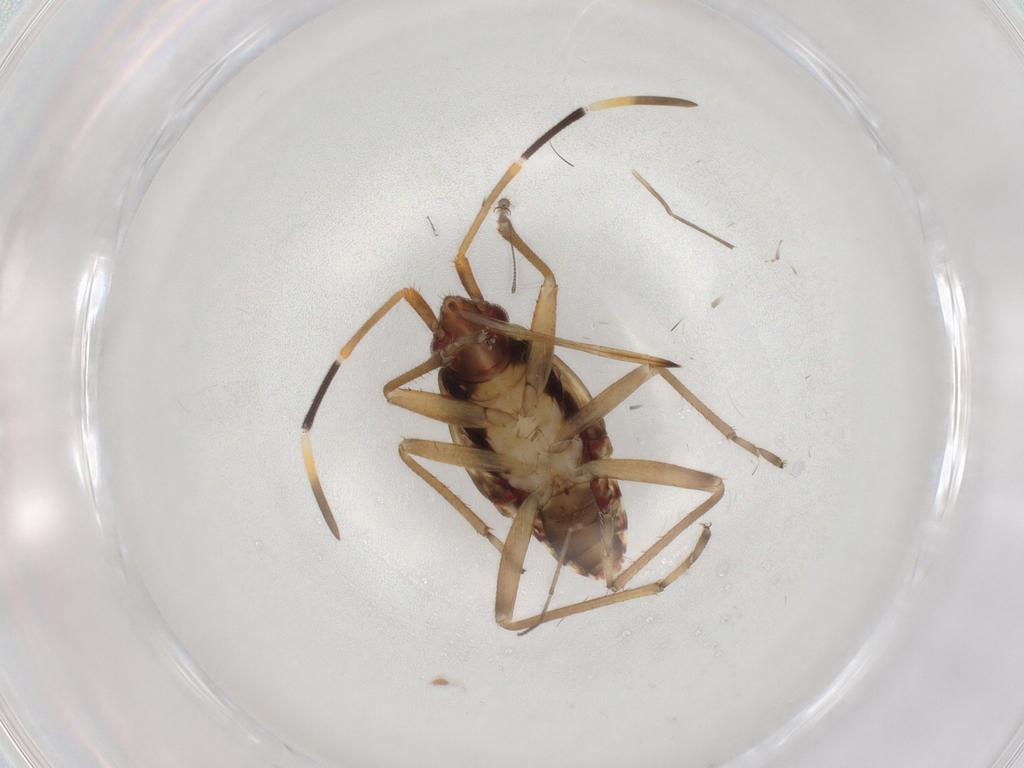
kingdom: Animalia
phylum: Arthropoda
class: Insecta
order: Hemiptera
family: Rhyparochromidae
